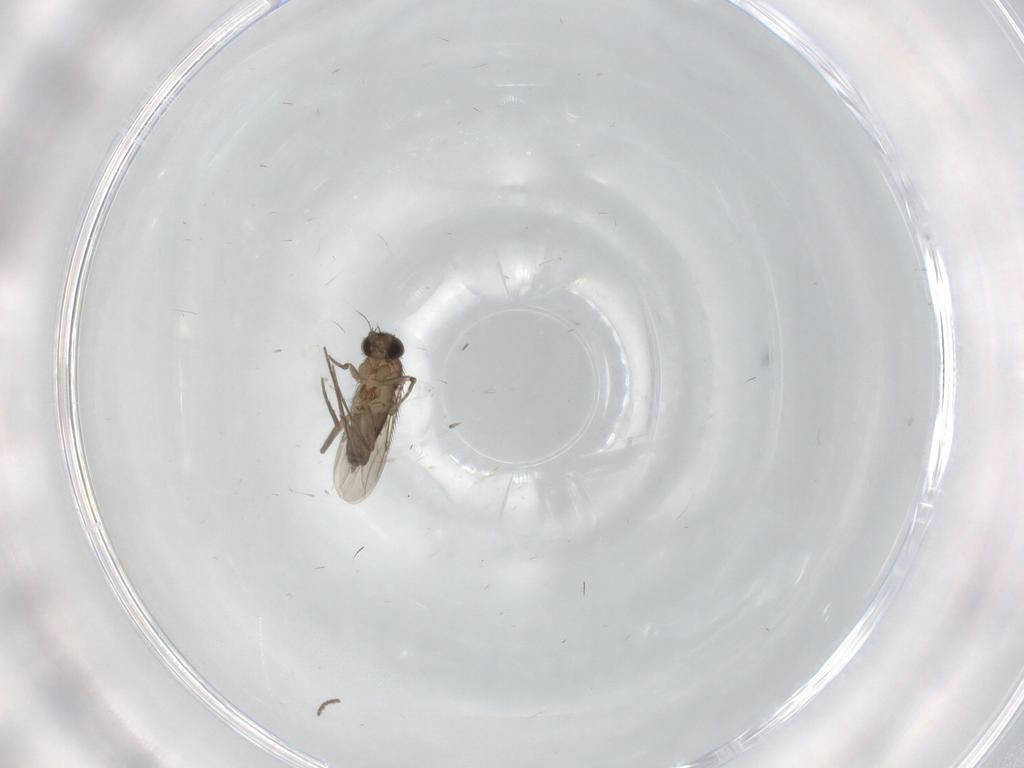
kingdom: Animalia
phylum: Arthropoda
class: Insecta
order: Diptera
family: Phoridae
